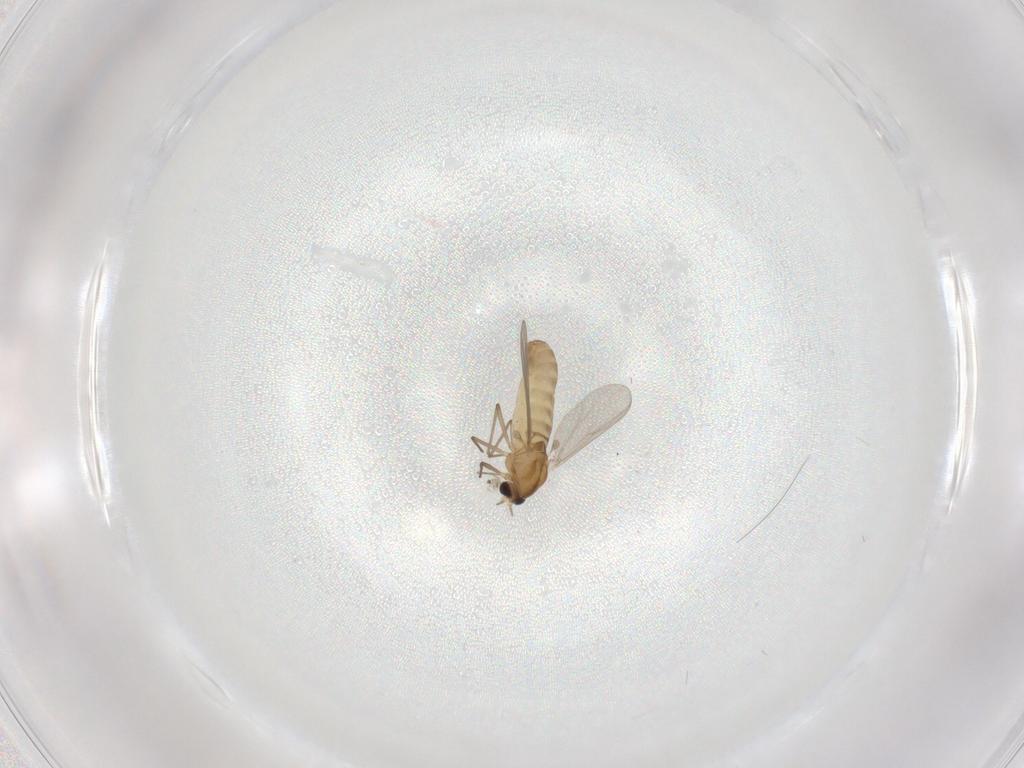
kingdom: Animalia
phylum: Arthropoda
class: Insecta
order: Diptera
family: Chironomidae
